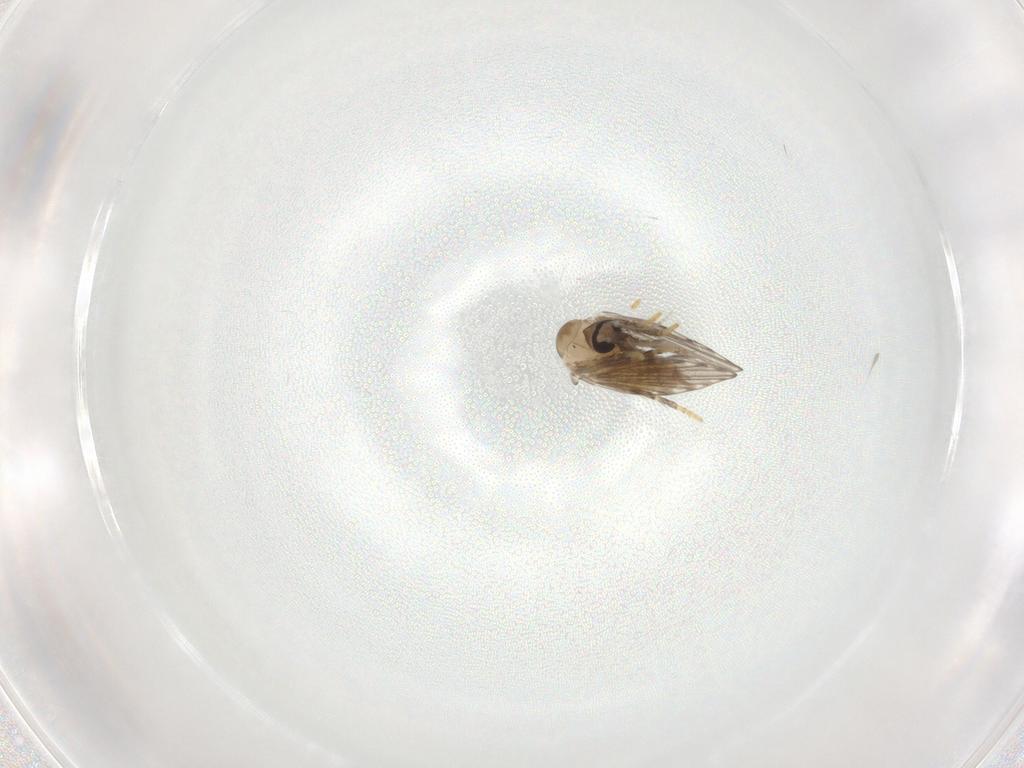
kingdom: Animalia
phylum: Arthropoda
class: Insecta
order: Diptera
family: Psychodidae
